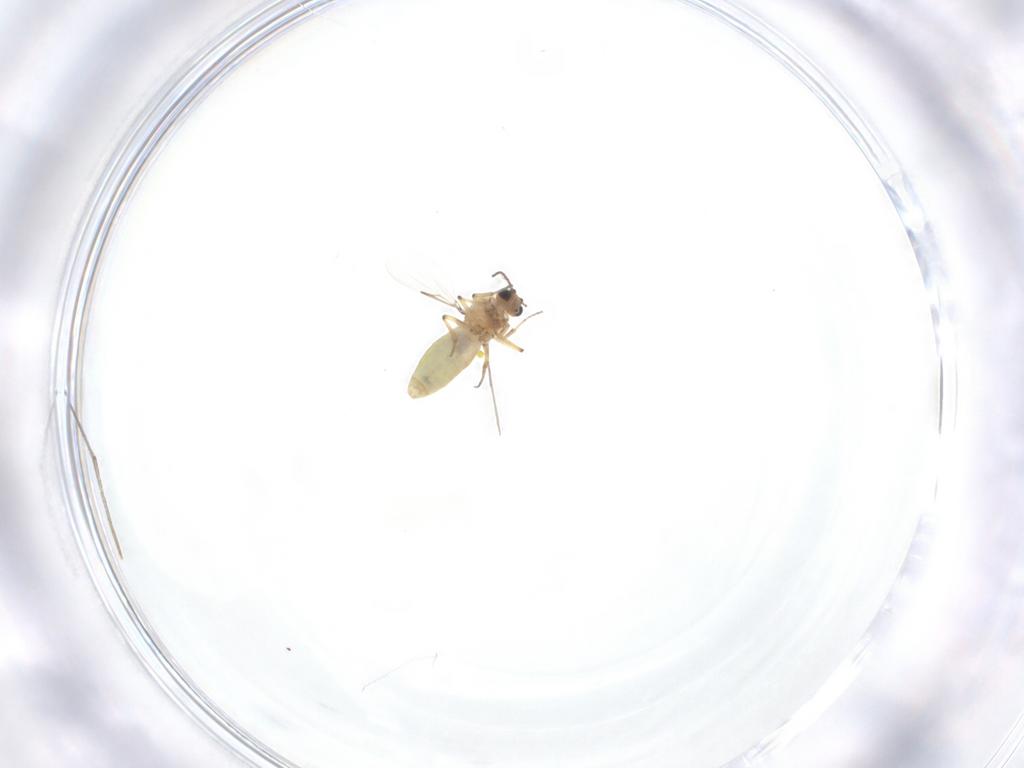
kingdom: Animalia
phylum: Arthropoda
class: Insecta
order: Diptera
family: Ceratopogonidae
